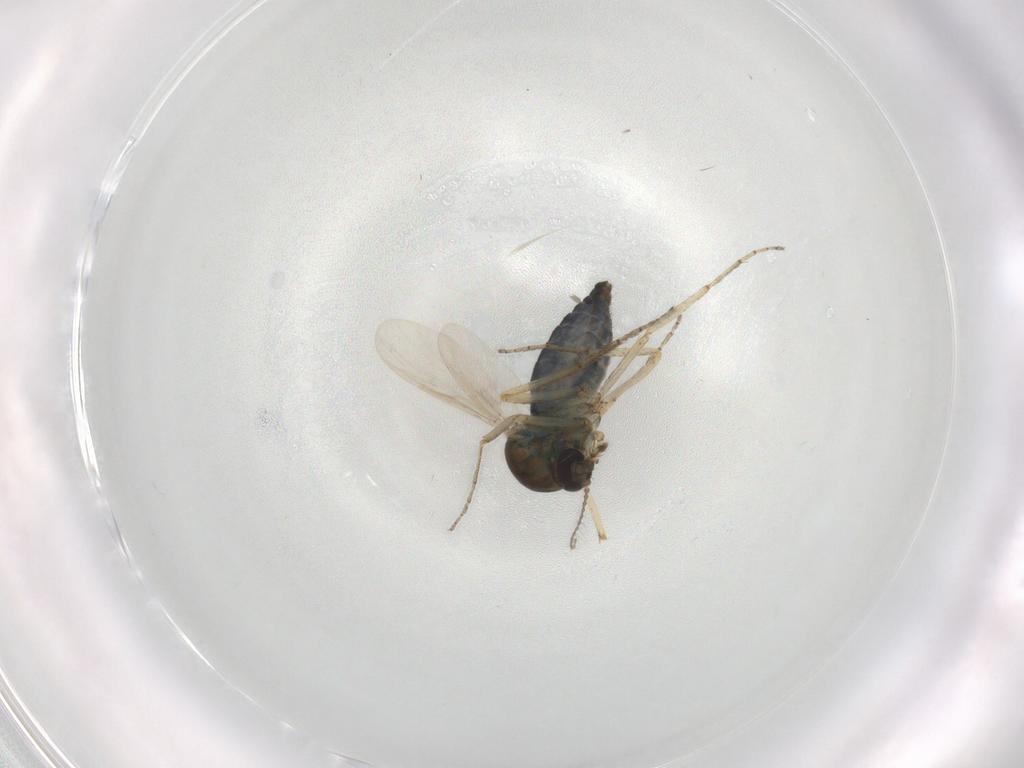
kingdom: Animalia
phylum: Arthropoda
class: Insecta
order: Diptera
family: Ceratopogonidae
